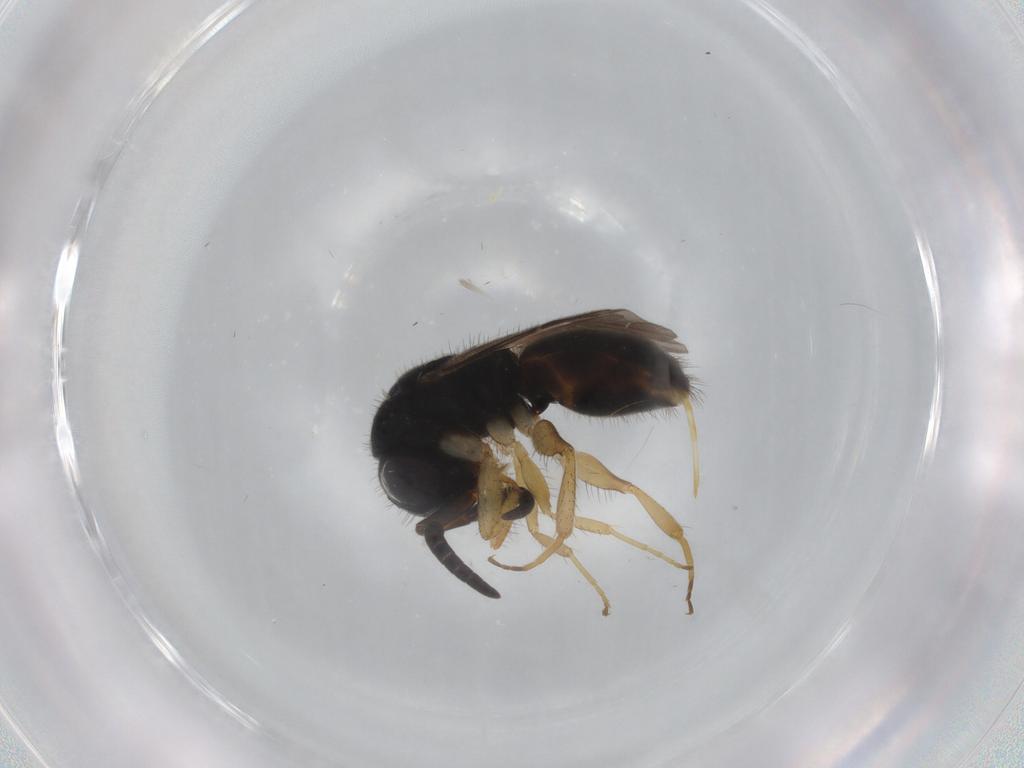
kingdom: Animalia
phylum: Arthropoda
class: Insecta
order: Hymenoptera
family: Chrysididae
